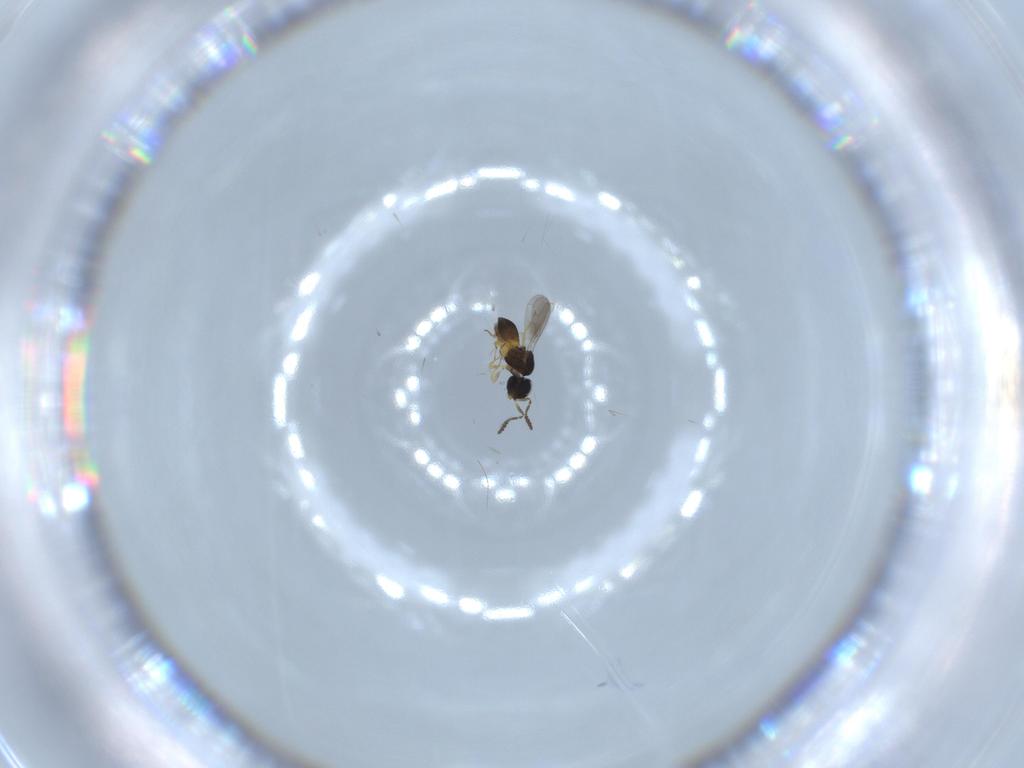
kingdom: Animalia
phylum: Arthropoda
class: Insecta
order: Hymenoptera
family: Scelionidae
